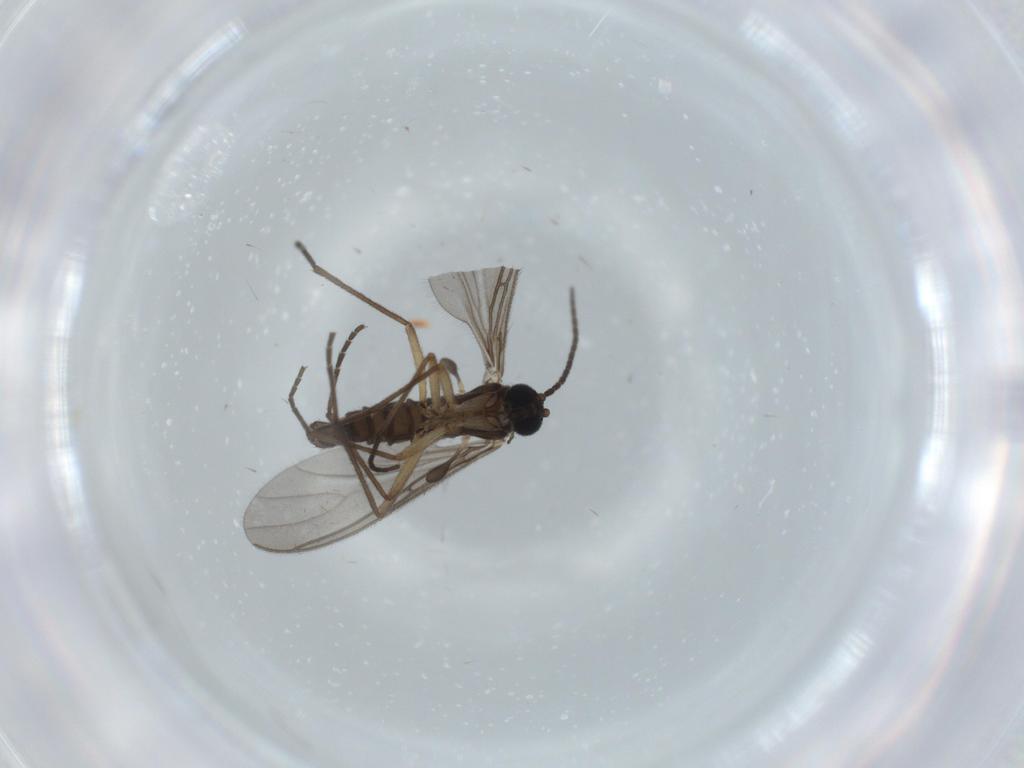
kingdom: Animalia
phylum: Arthropoda
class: Insecta
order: Diptera
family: Sciaridae
